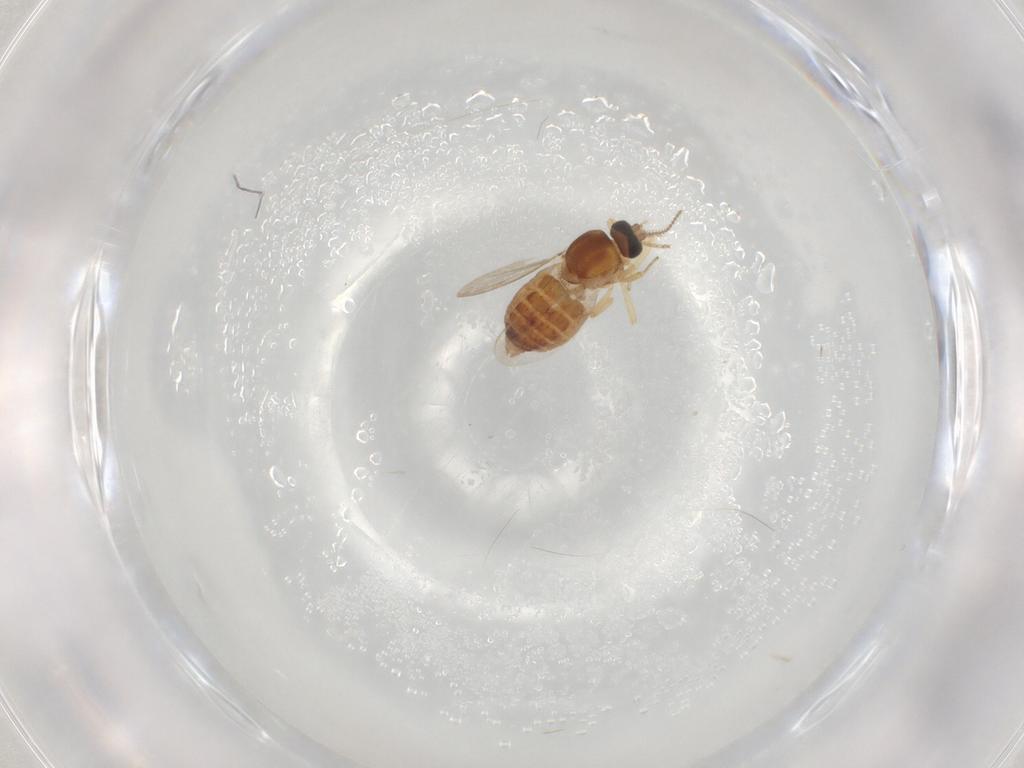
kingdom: Animalia
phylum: Arthropoda
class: Insecta
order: Diptera
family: Ceratopogonidae
